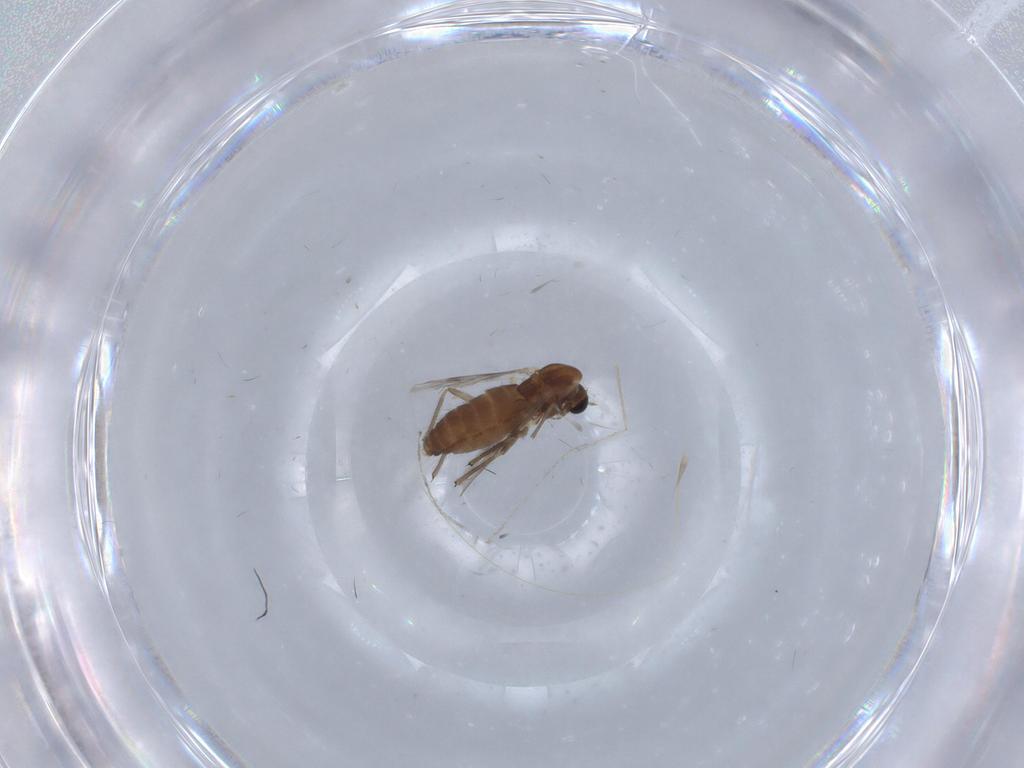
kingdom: Animalia
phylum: Arthropoda
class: Insecta
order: Diptera
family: Chironomidae
